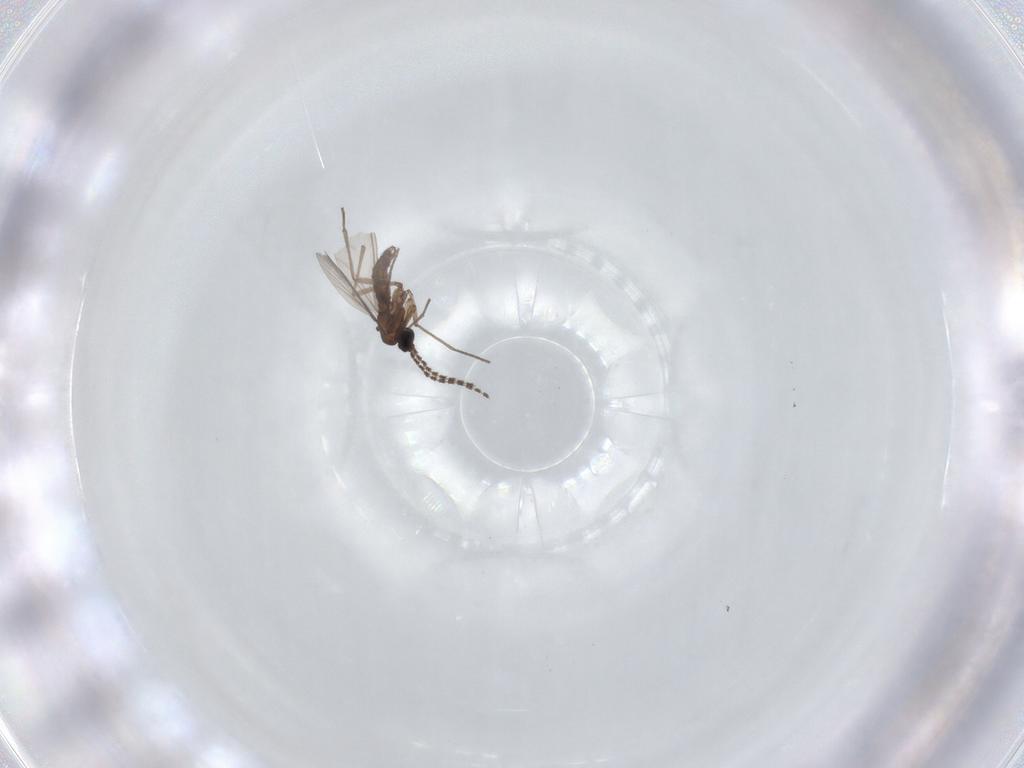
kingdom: Animalia
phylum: Arthropoda
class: Insecta
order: Diptera
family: Sciaridae
